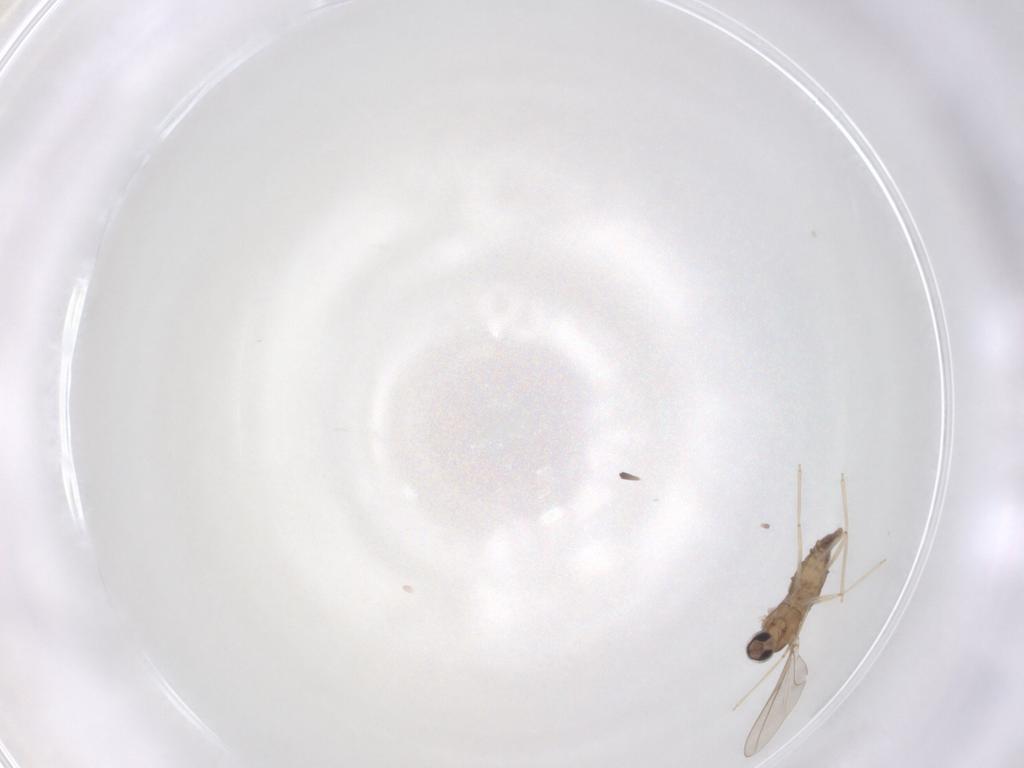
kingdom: Animalia
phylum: Arthropoda
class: Insecta
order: Diptera
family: Cecidomyiidae
